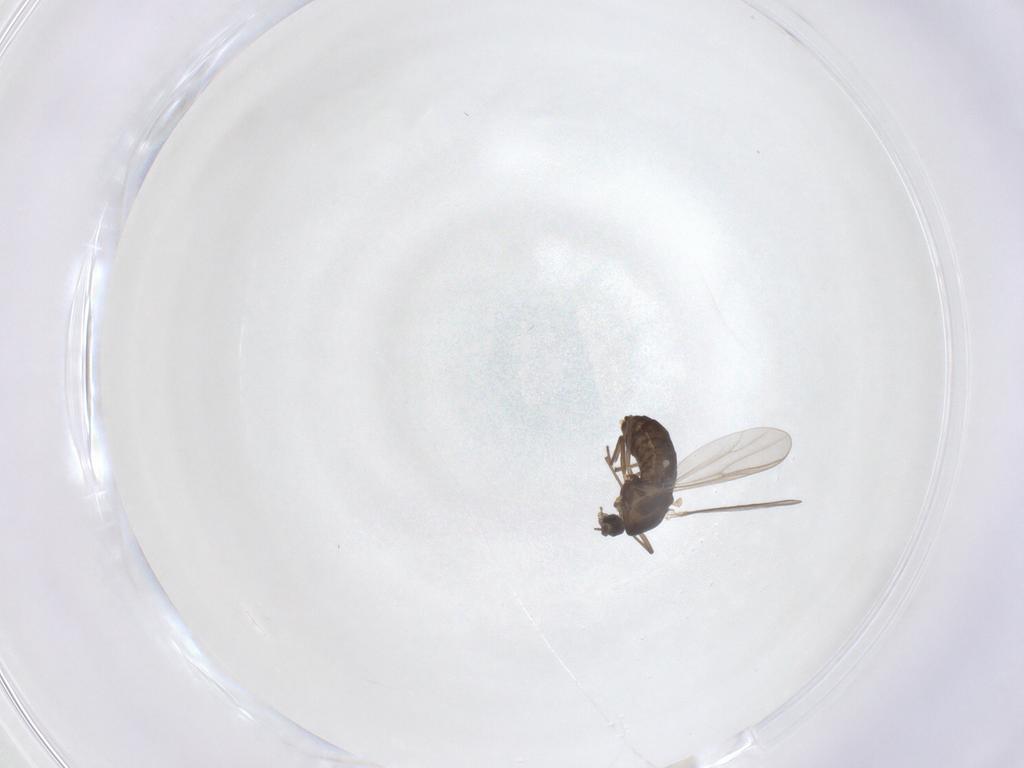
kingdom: Animalia
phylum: Arthropoda
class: Insecta
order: Diptera
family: Chironomidae
